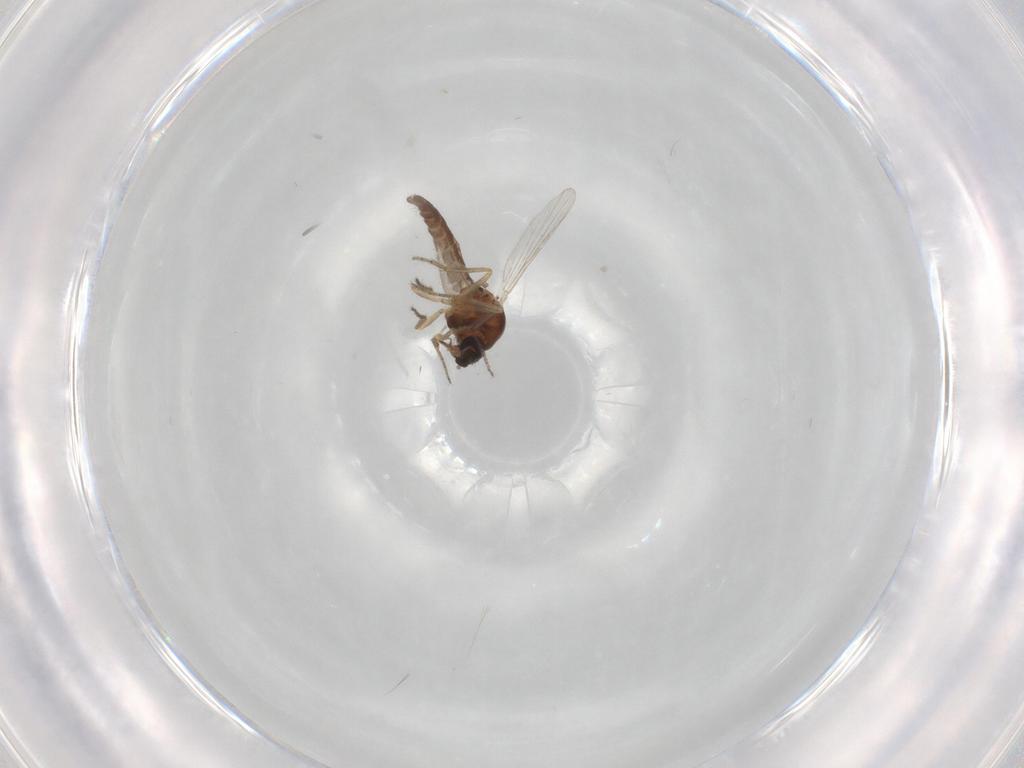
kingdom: Animalia
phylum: Arthropoda
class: Insecta
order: Diptera
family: Ceratopogonidae
